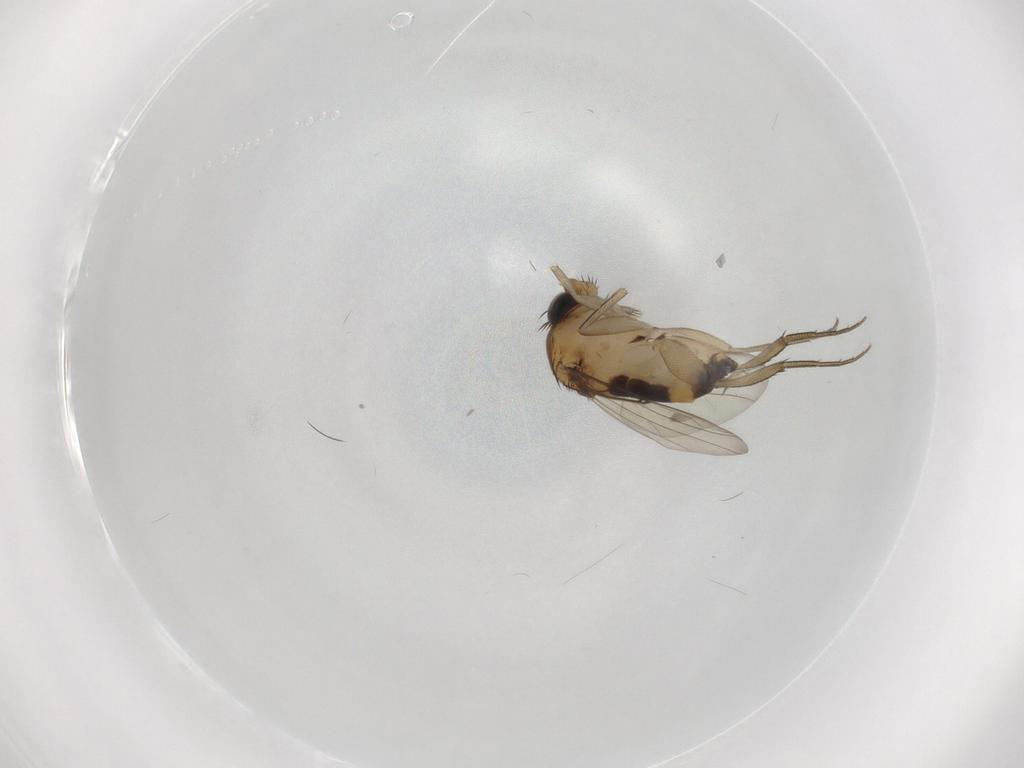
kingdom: Animalia
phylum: Arthropoda
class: Insecta
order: Diptera
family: Phoridae
